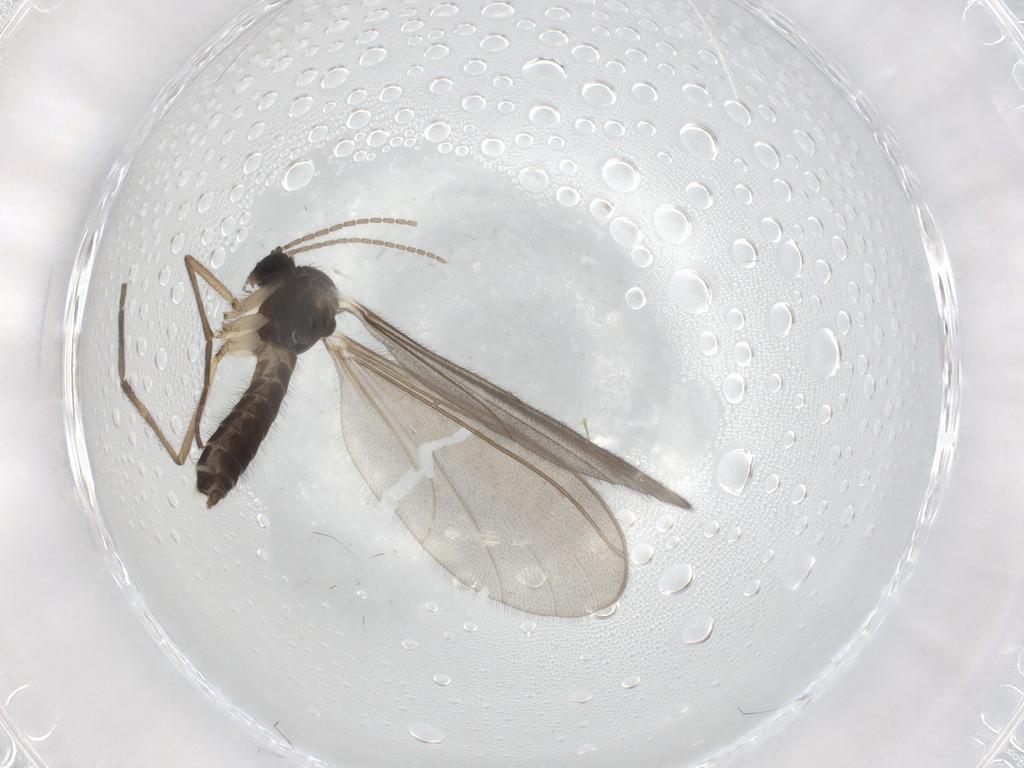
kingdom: Animalia
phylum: Arthropoda
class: Insecta
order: Diptera
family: Mycetophilidae
